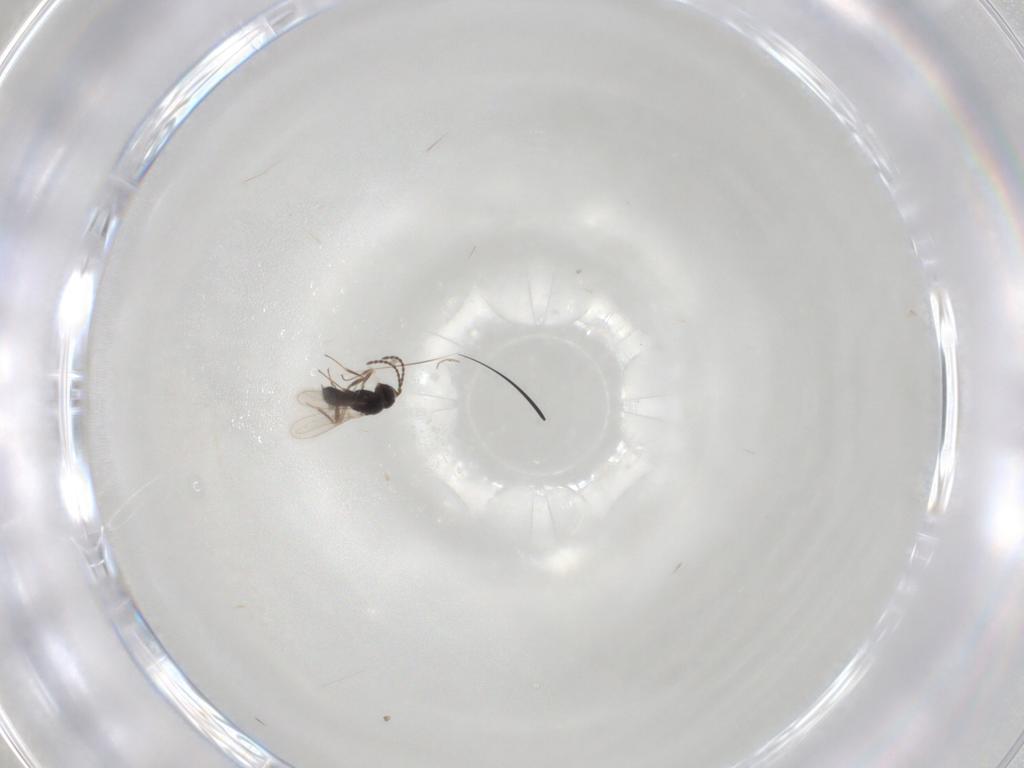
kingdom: Animalia
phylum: Arthropoda
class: Insecta
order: Hymenoptera
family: Scelionidae
